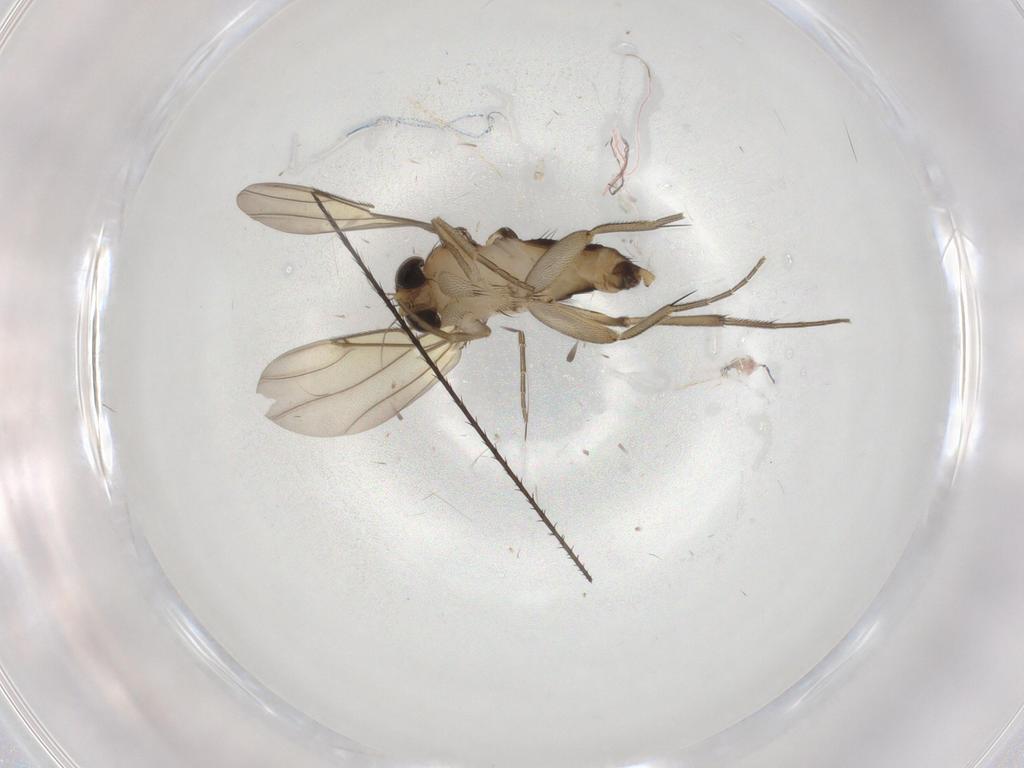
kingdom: Animalia
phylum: Arthropoda
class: Insecta
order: Diptera
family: Phoridae
